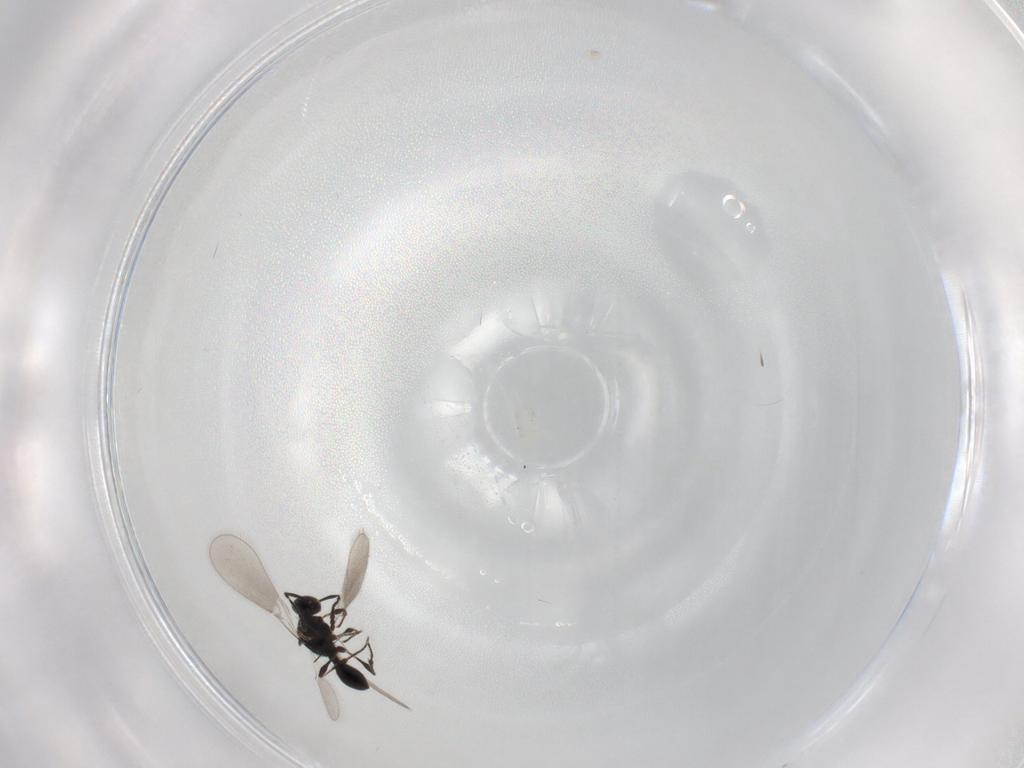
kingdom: Animalia
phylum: Arthropoda
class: Insecta
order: Hymenoptera
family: Platygastridae
